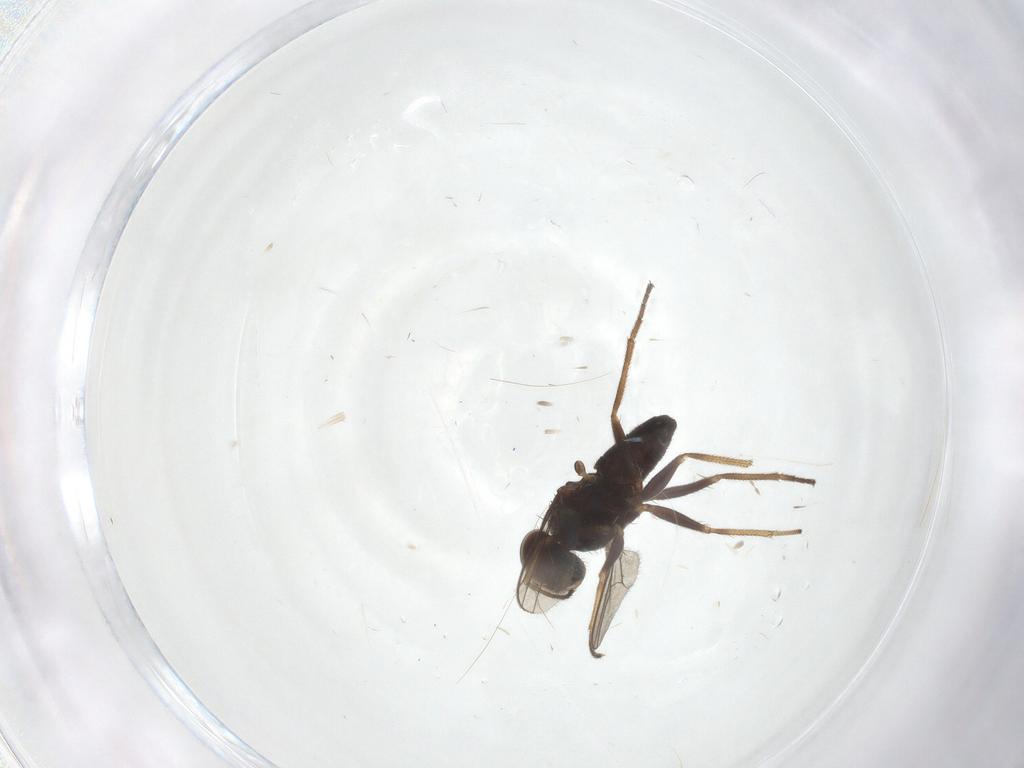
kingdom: Animalia
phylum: Arthropoda
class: Insecta
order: Diptera
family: Cecidomyiidae
